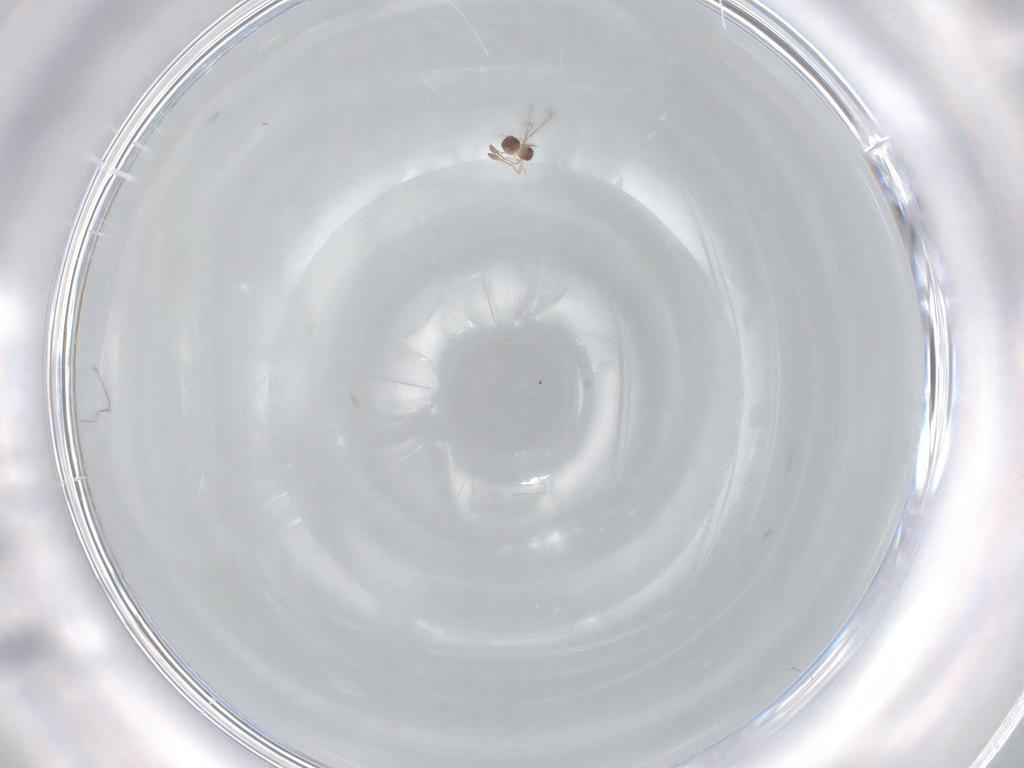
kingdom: Animalia
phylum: Arthropoda
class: Insecta
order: Hymenoptera
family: Mymaridae
